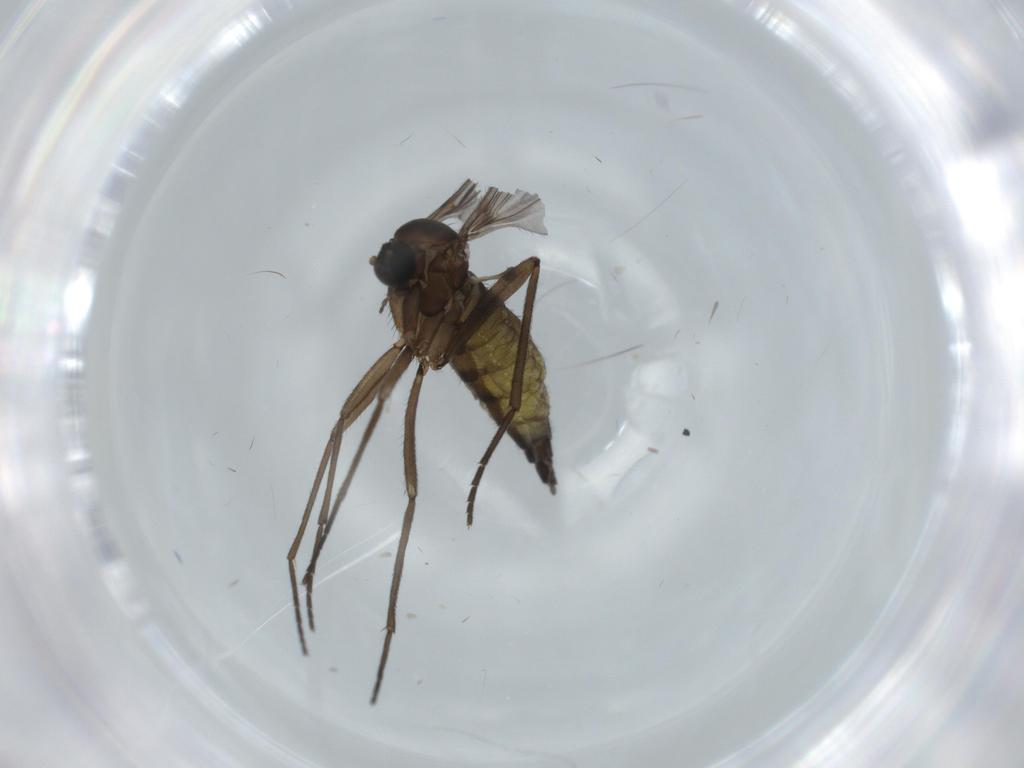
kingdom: Animalia
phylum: Arthropoda
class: Insecta
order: Diptera
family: Sciaridae
